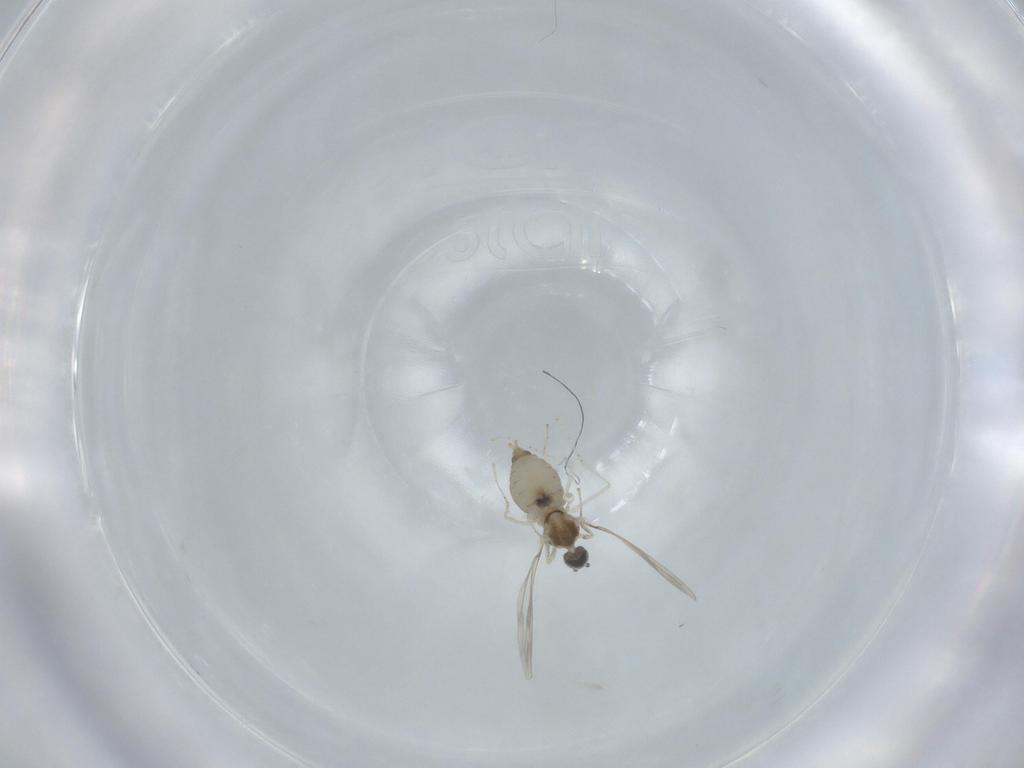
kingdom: Animalia
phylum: Arthropoda
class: Insecta
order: Diptera
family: Cecidomyiidae
